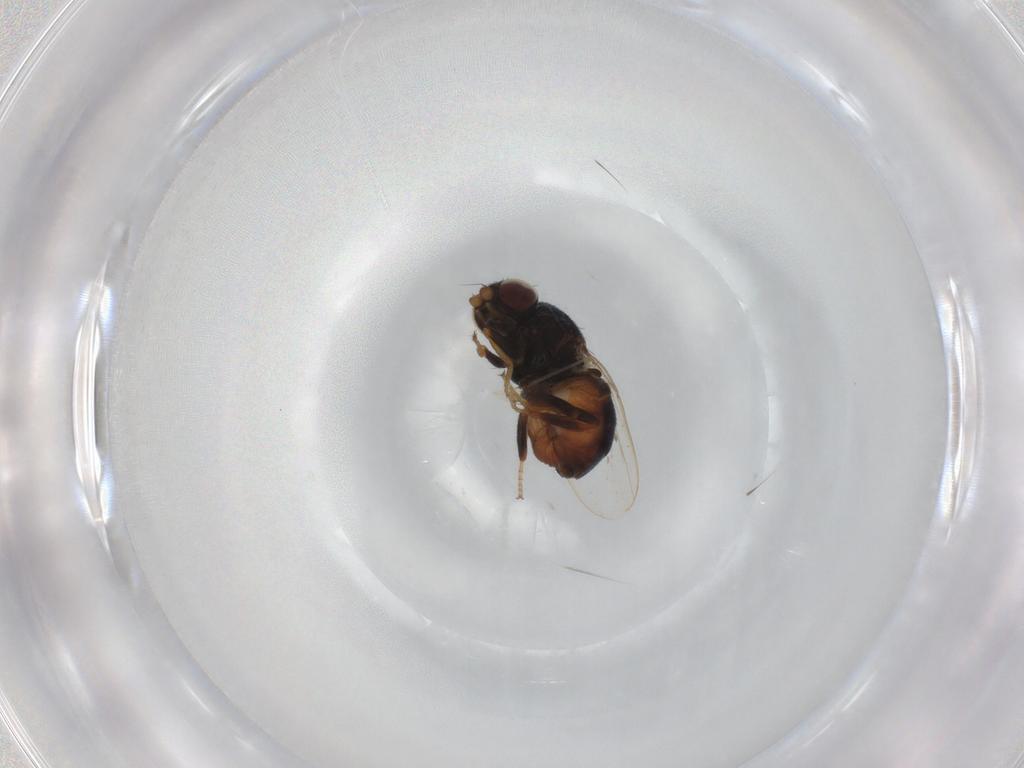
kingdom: Animalia
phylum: Arthropoda
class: Insecta
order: Diptera
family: Chloropidae
